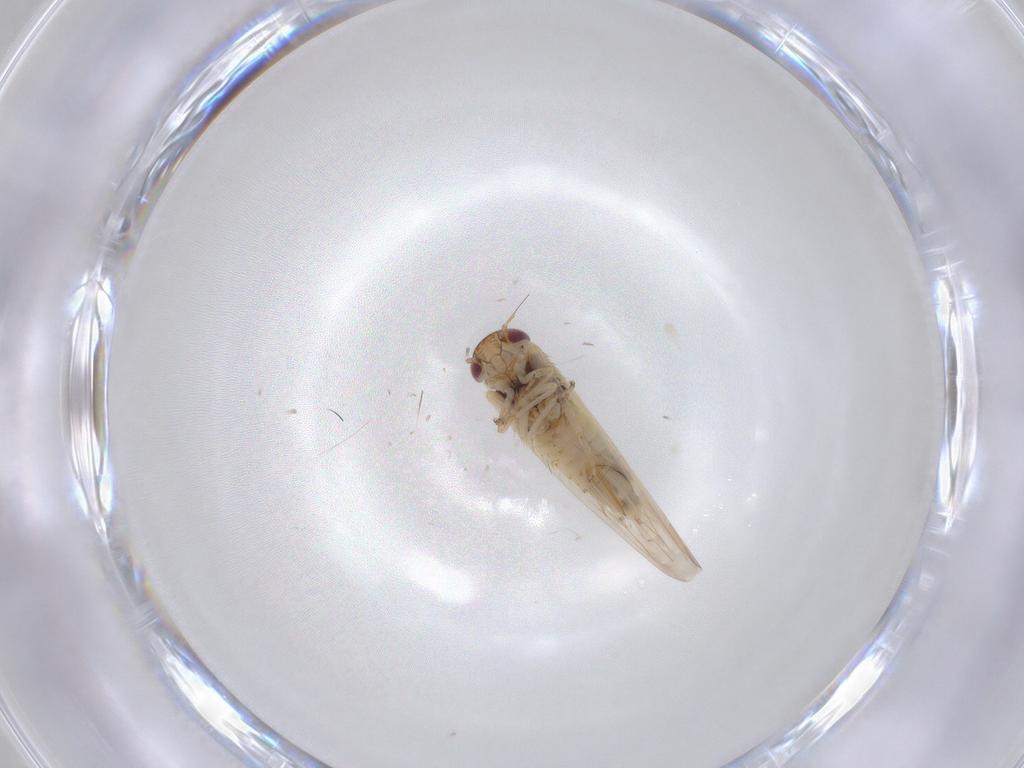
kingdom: Animalia
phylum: Arthropoda
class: Insecta
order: Hemiptera
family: Cicadellidae
